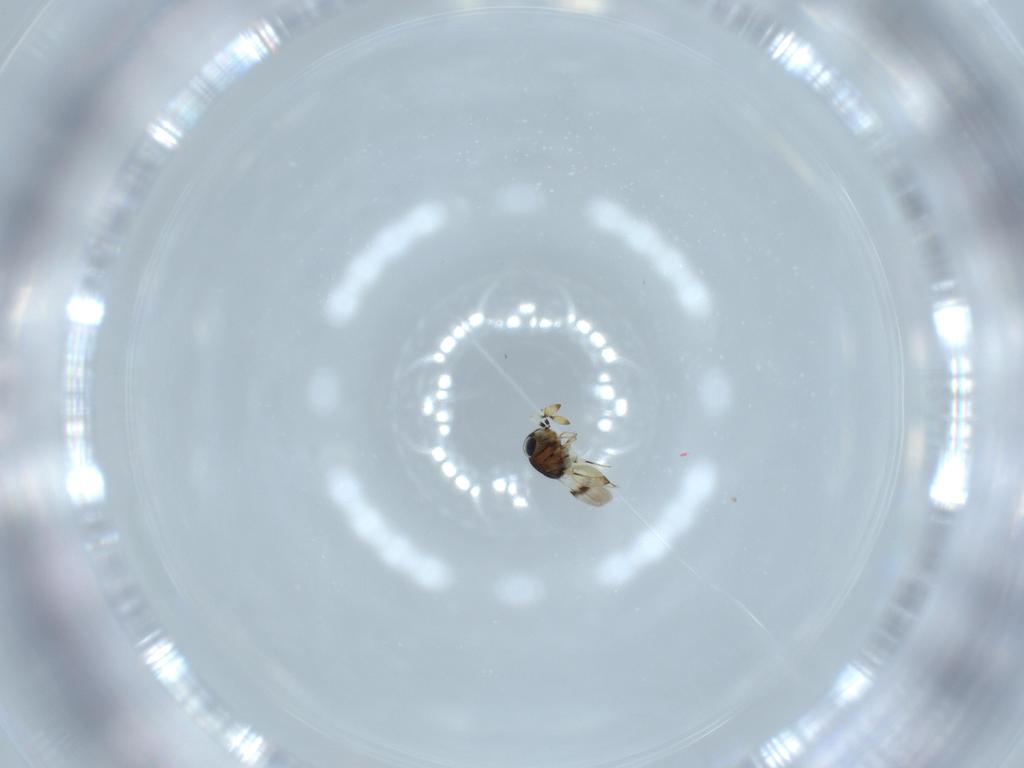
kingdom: Animalia
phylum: Arthropoda
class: Insecta
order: Hymenoptera
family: Scelionidae
